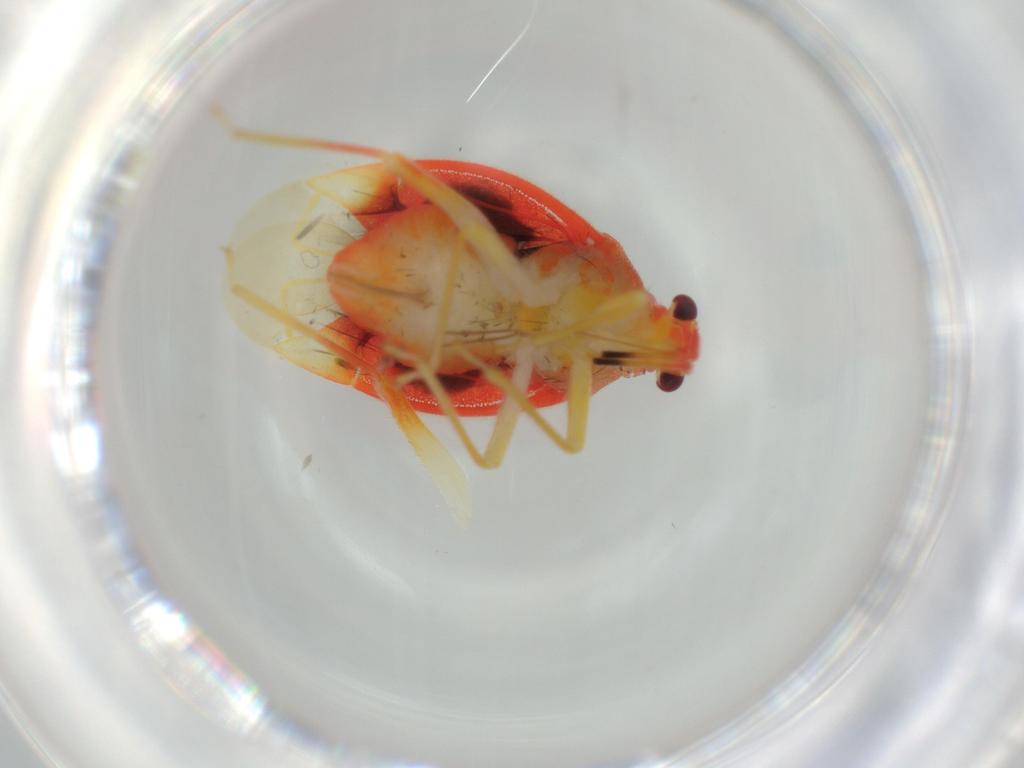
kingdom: Animalia
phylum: Arthropoda
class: Insecta
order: Hemiptera
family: Miridae
